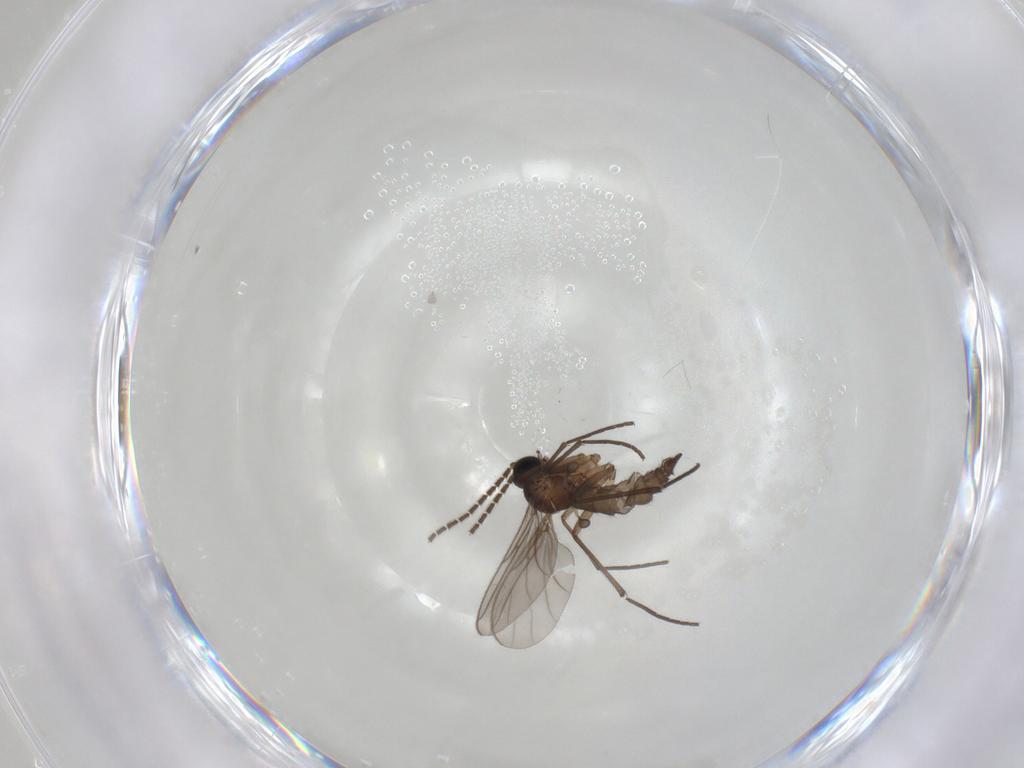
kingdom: Animalia
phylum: Arthropoda
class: Insecta
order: Diptera
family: Sciaridae
